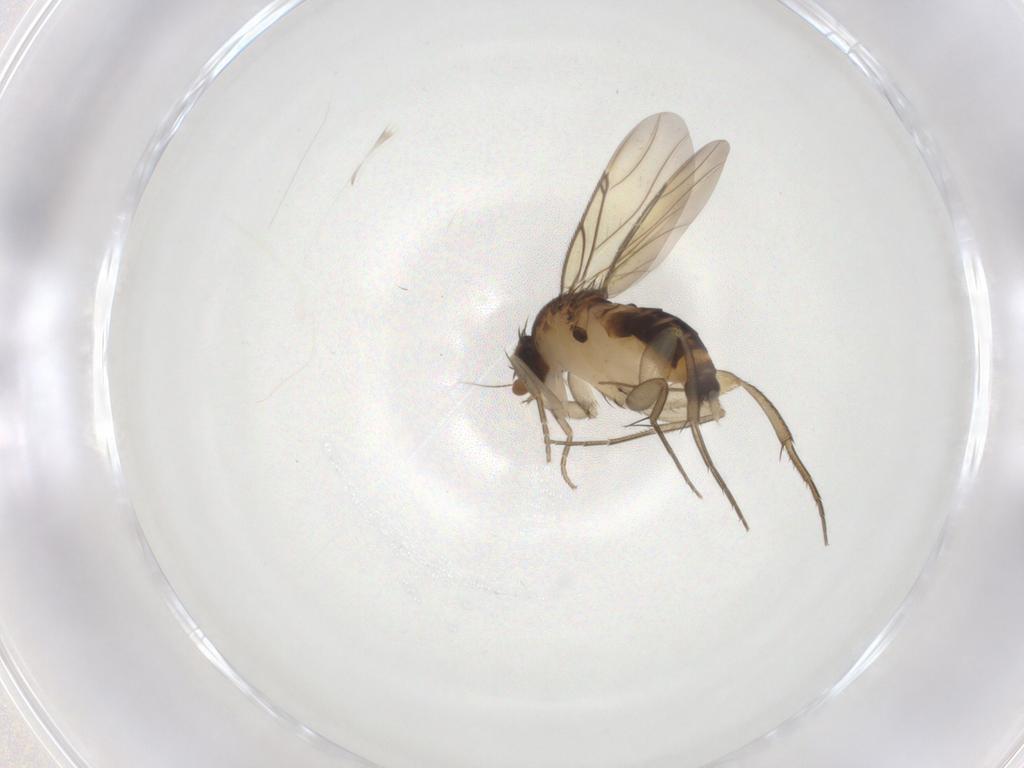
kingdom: Animalia
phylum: Arthropoda
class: Insecta
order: Diptera
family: Chironomidae
